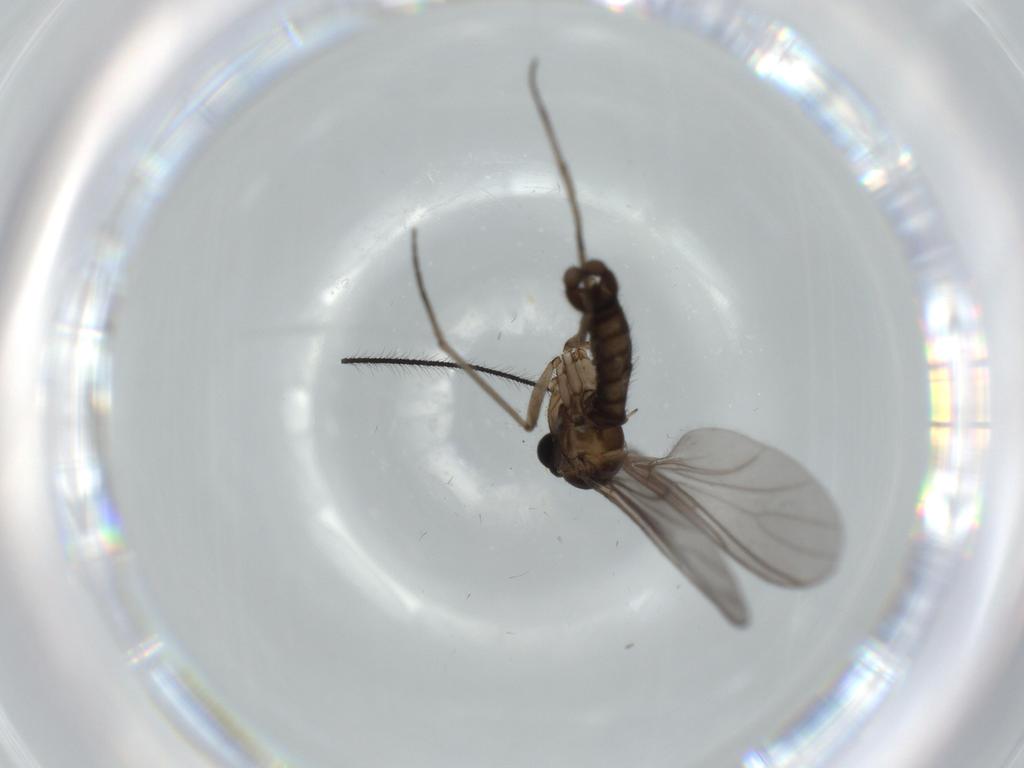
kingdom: Animalia
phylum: Arthropoda
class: Insecta
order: Diptera
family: Sciaridae
